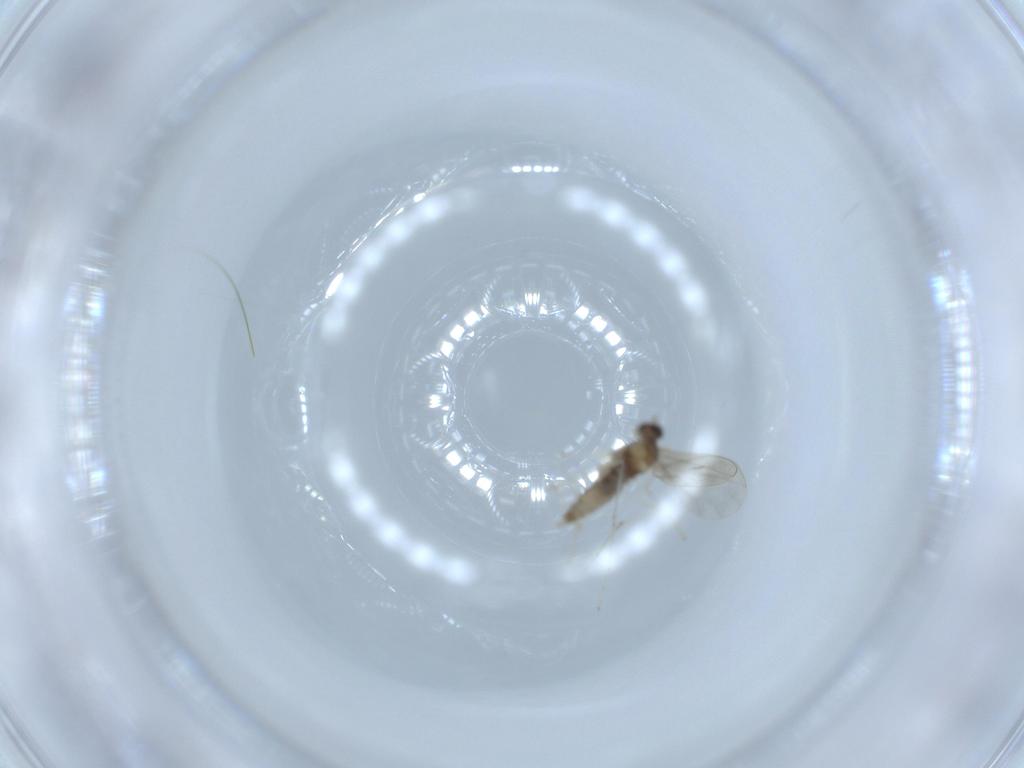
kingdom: Animalia
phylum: Arthropoda
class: Insecta
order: Diptera
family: Cecidomyiidae
